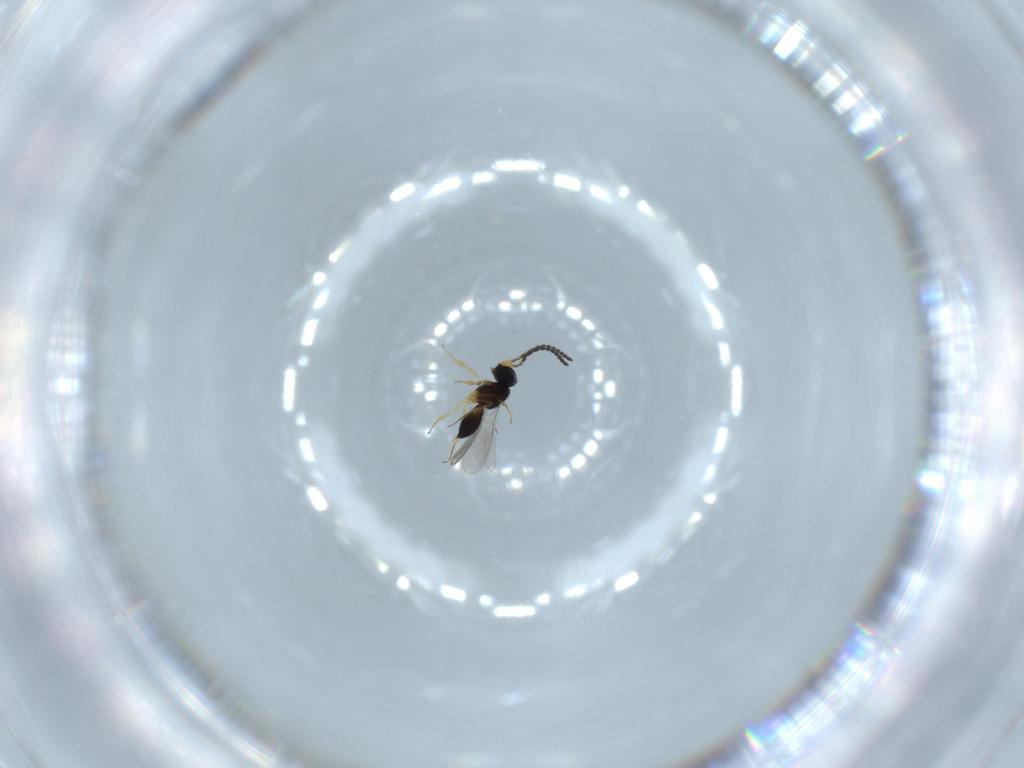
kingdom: Animalia
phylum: Arthropoda
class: Insecta
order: Hymenoptera
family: Scelionidae
